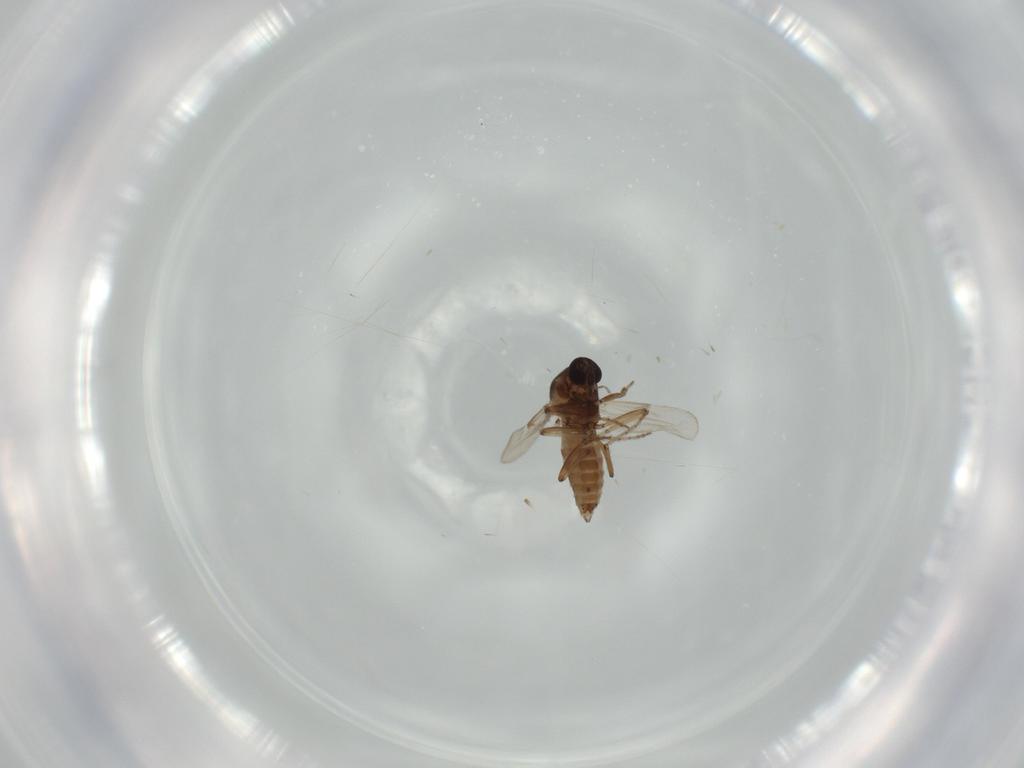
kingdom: Animalia
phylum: Arthropoda
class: Insecta
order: Diptera
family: Ceratopogonidae
